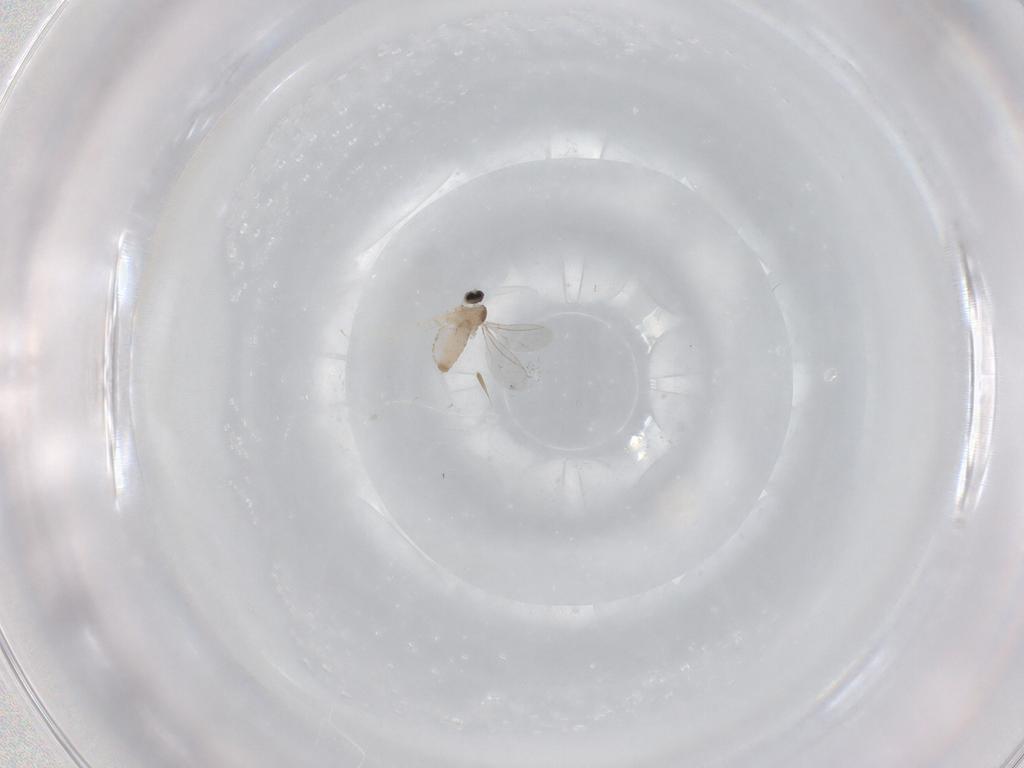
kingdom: Animalia
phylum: Arthropoda
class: Insecta
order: Diptera
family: Cecidomyiidae
